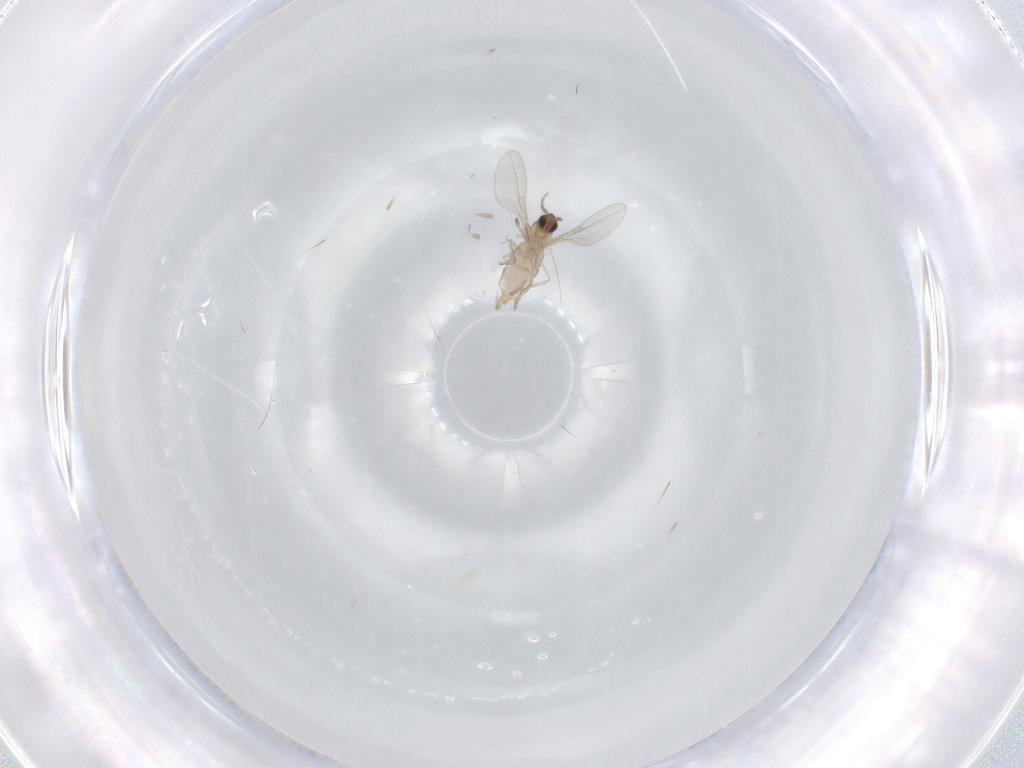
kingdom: Animalia
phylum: Arthropoda
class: Insecta
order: Diptera
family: Cecidomyiidae
